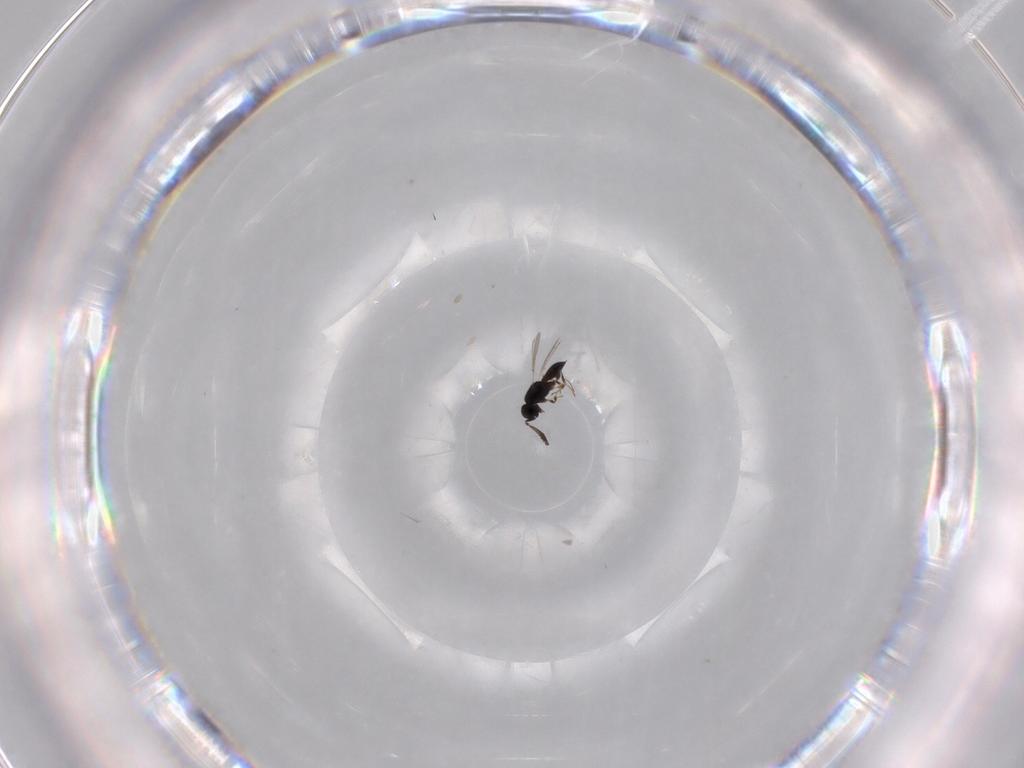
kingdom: Animalia
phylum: Arthropoda
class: Insecta
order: Hymenoptera
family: Scelionidae
